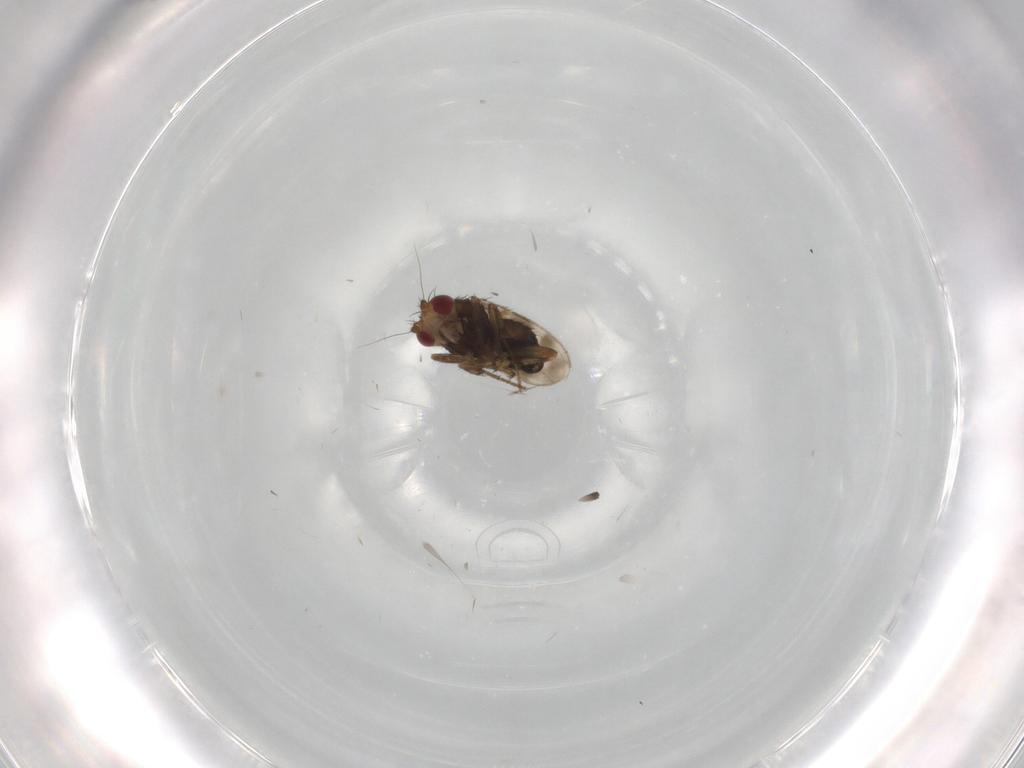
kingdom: Animalia
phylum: Arthropoda
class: Insecta
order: Diptera
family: Sphaeroceridae
